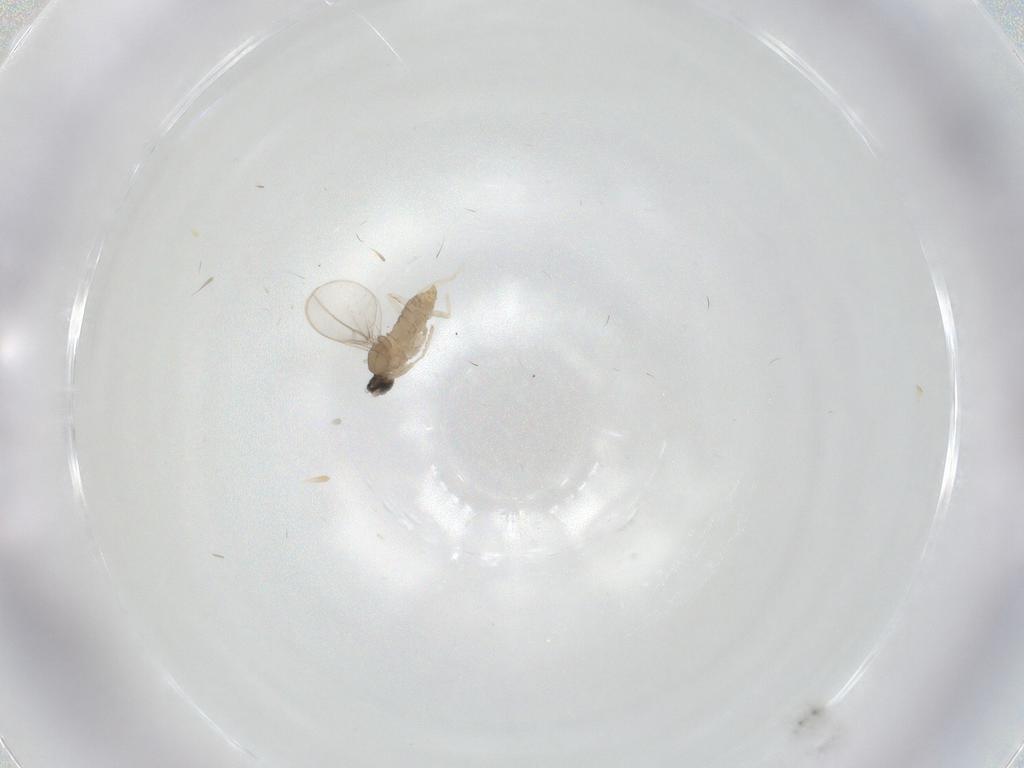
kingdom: Animalia
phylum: Arthropoda
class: Insecta
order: Diptera
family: Cecidomyiidae
